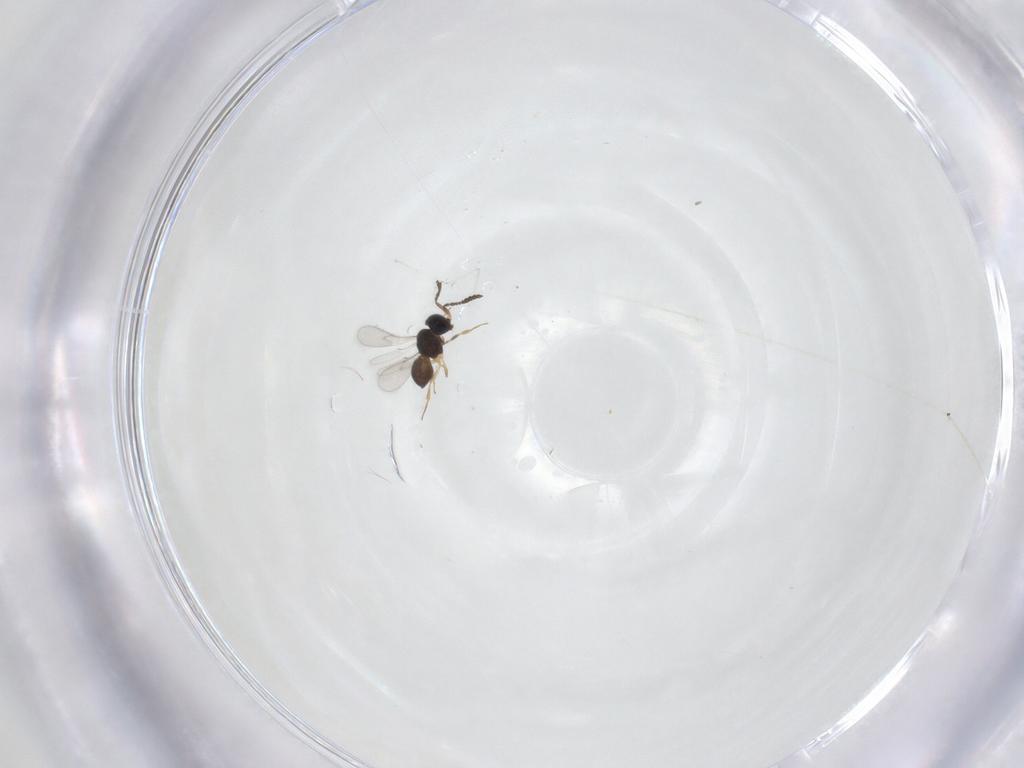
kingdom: Animalia
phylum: Arthropoda
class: Insecta
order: Hymenoptera
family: Scelionidae
